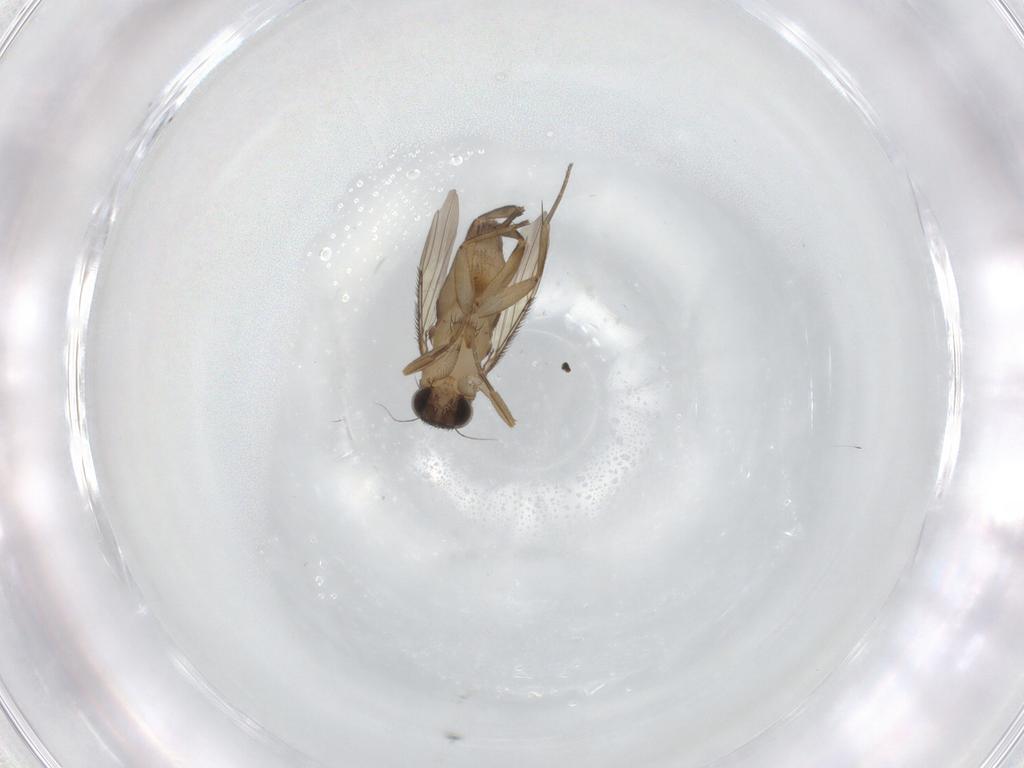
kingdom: Animalia
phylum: Arthropoda
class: Insecta
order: Diptera
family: Phoridae
